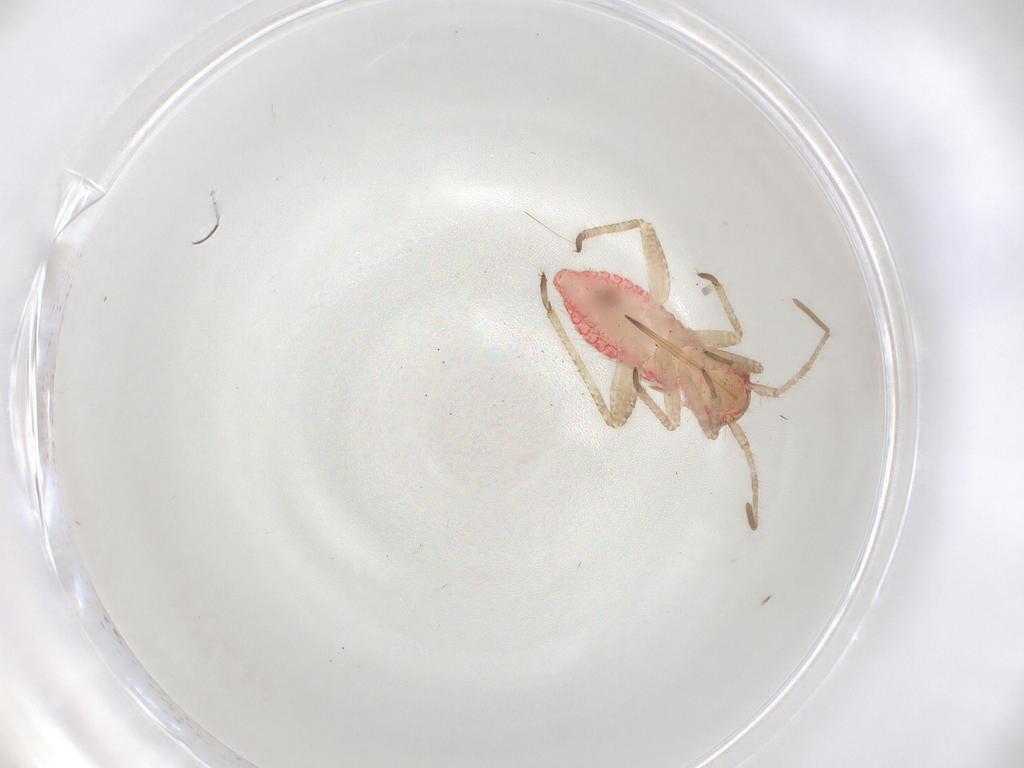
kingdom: Animalia
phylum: Arthropoda
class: Insecta
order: Hemiptera
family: Miridae
